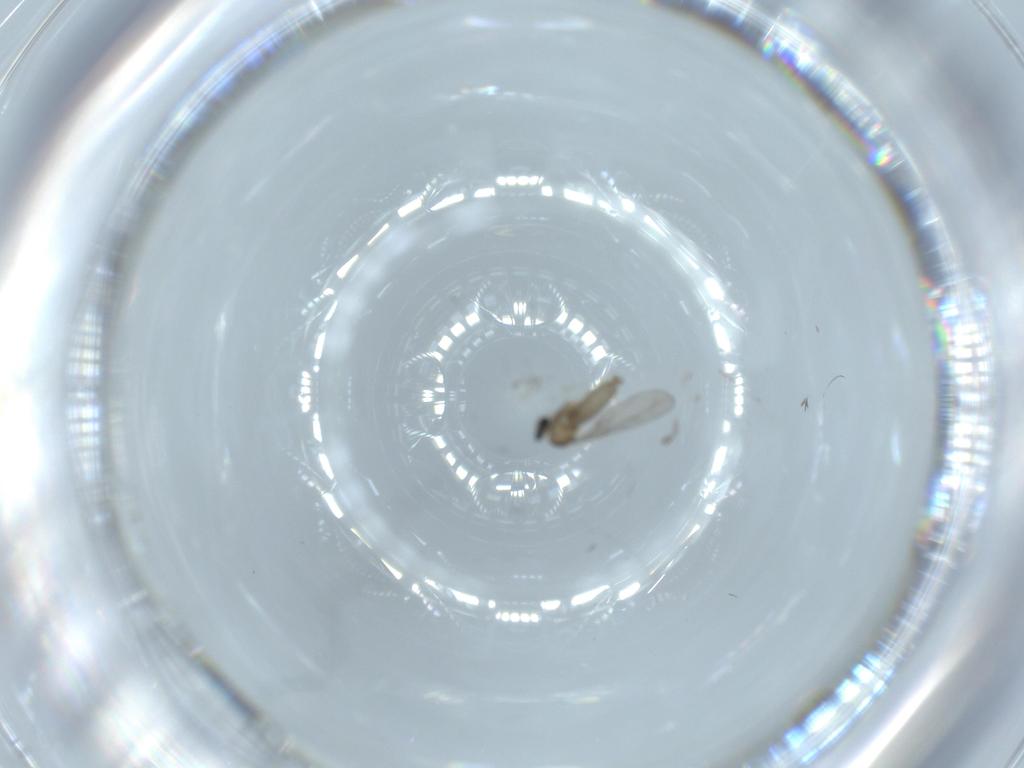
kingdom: Animalia
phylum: Arthropoda
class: Insecta
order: Diptera
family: Cecidomyiidae
